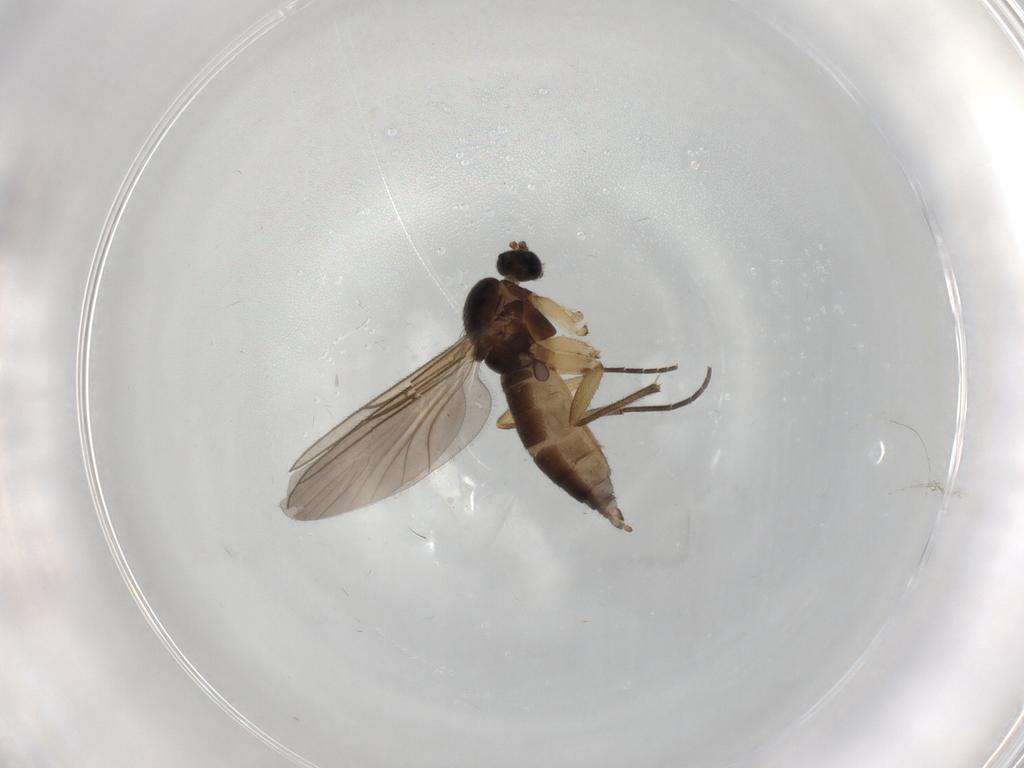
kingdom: Animalia
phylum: Arthropoda
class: Insecta
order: Diptera
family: Sciaridae
